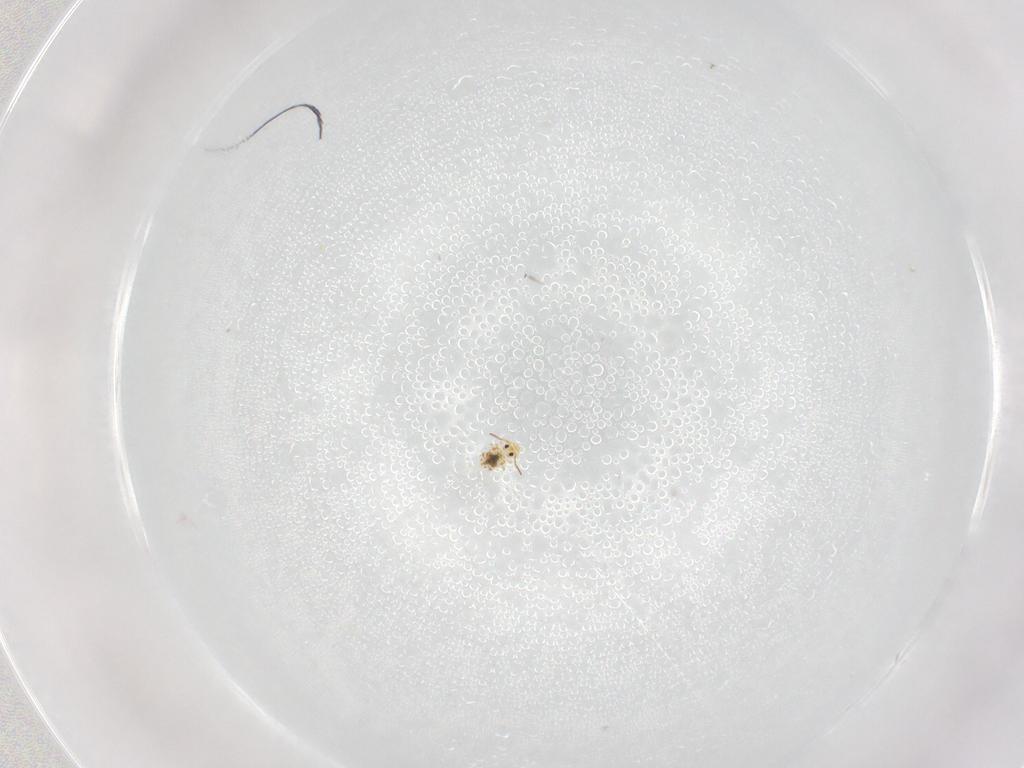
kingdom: Animalia
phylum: Arthropoda
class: Collembola
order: Symphypleona
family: Bourletiellidae
